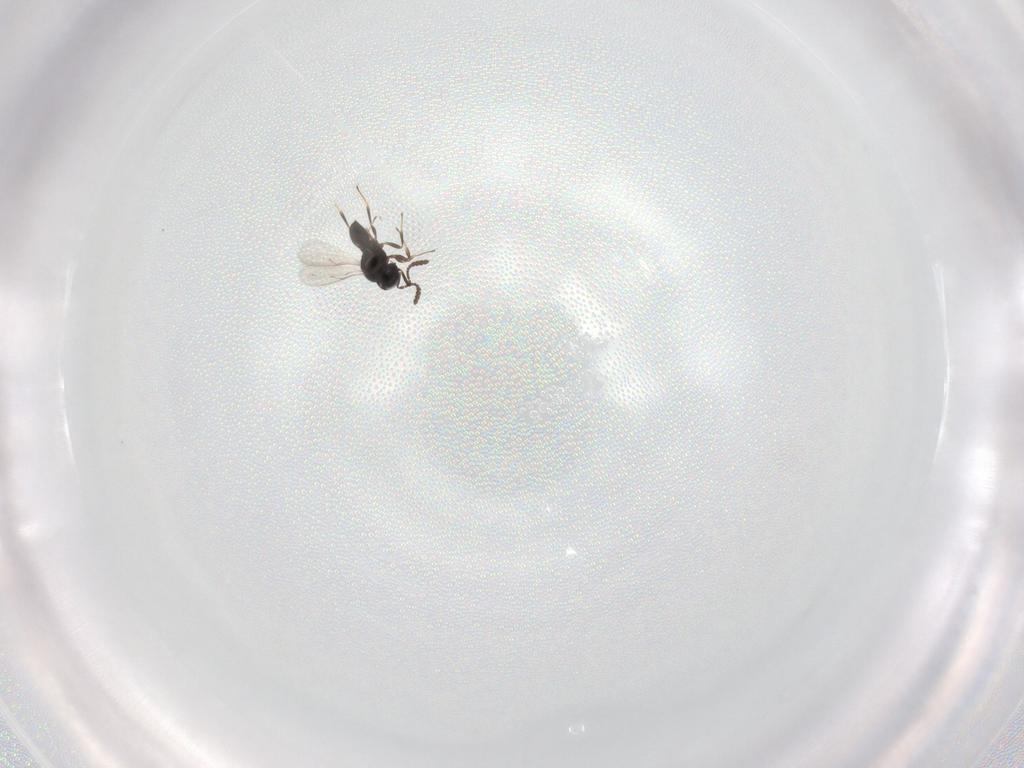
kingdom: Animalia
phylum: Arthropoda
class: Insecta
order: Hymenoptera
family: Scelionidae
